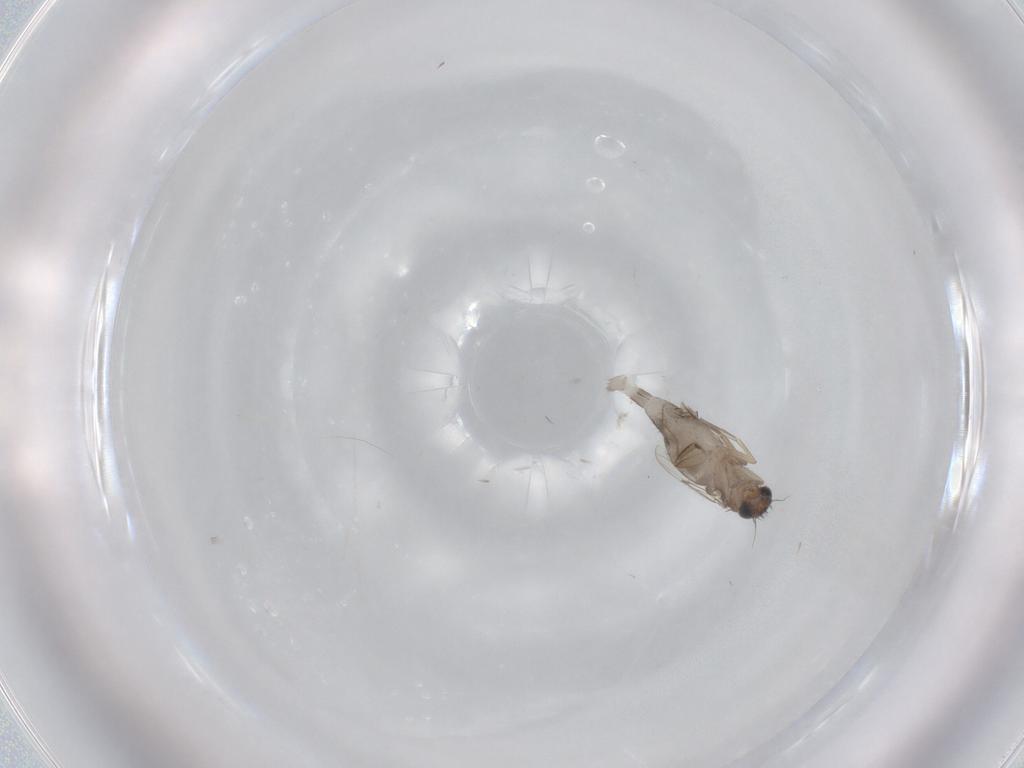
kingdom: Animalia
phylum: Arthropoda
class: Insecta
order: Diptera
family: Chironomidae
